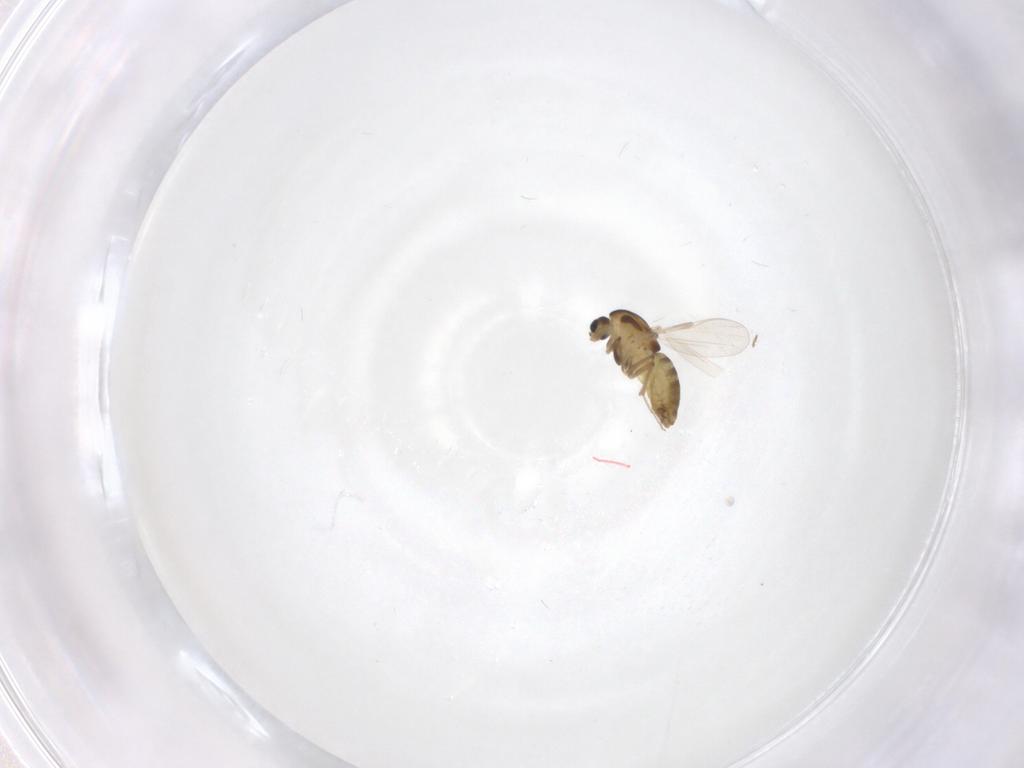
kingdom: Animalia
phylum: Arthropoda
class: Insecta
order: Diptera
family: Chironomidae
